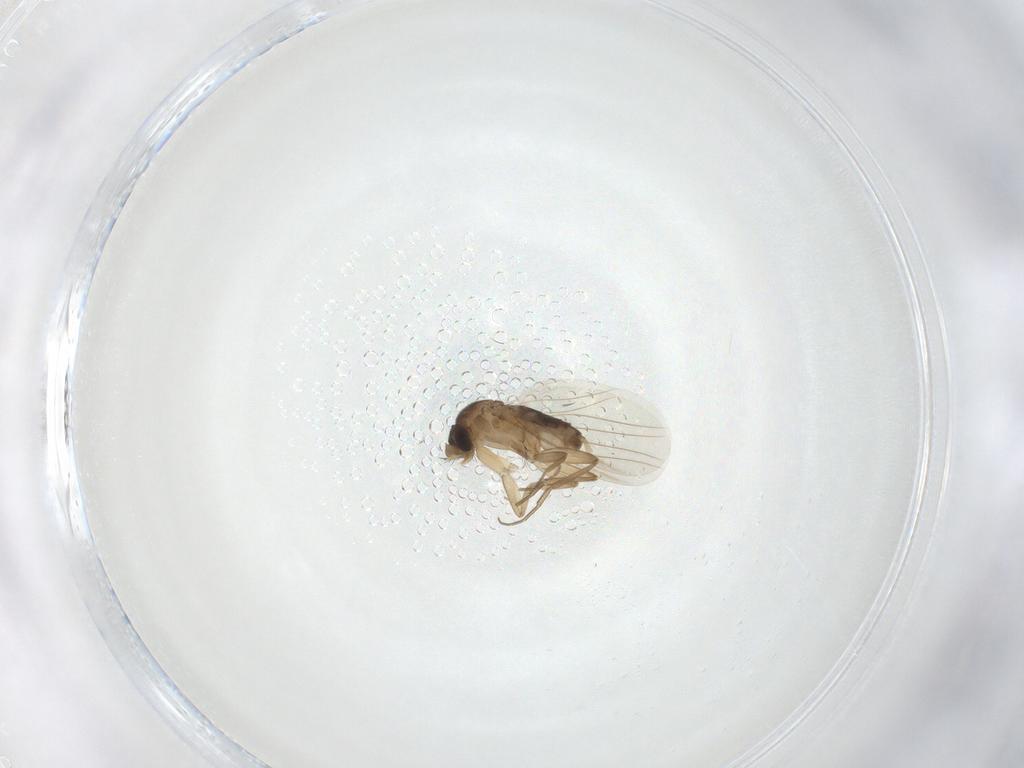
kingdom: Animalia
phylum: Arthropoda
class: Insecta
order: Diptera
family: Phoridae
